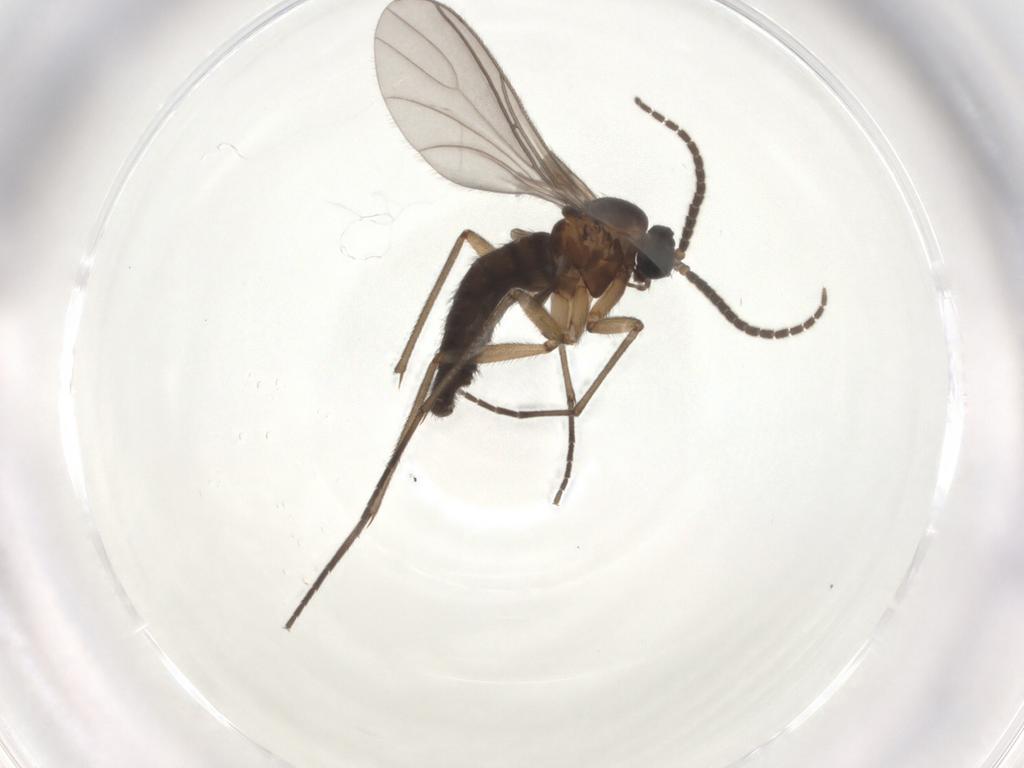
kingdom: Animalia
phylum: Arthropoda
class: Insecta
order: Diptera
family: Sciaridae
